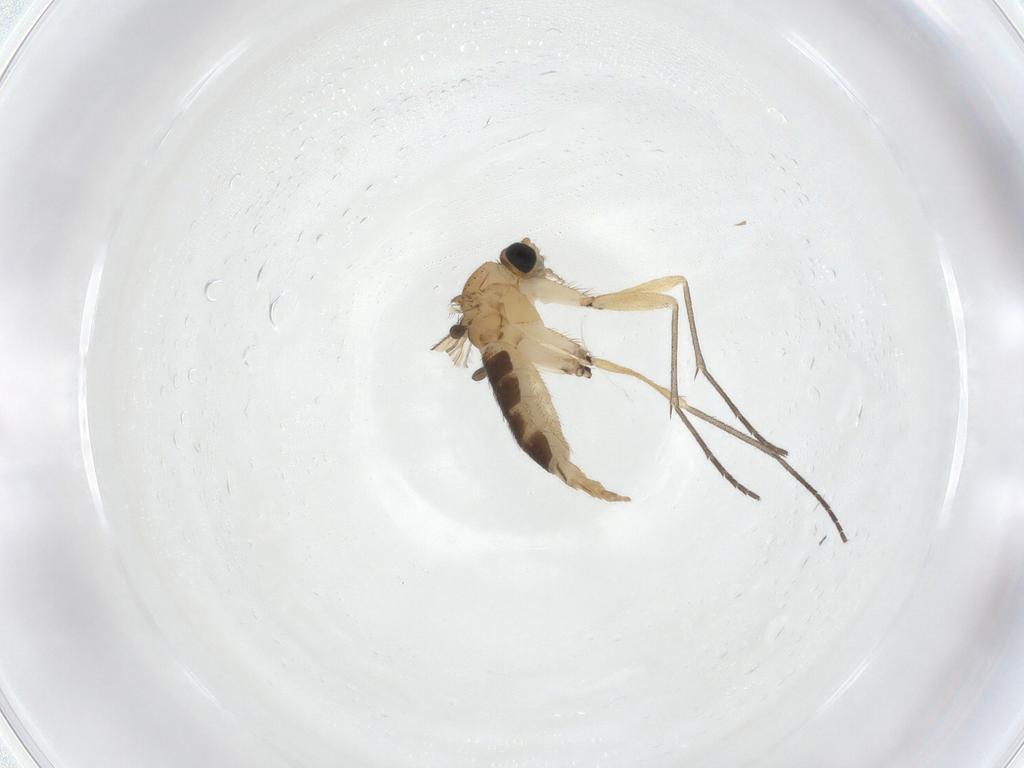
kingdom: Animalia
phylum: Arthropoda
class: Insecta
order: Diptera
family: Sciaridae
